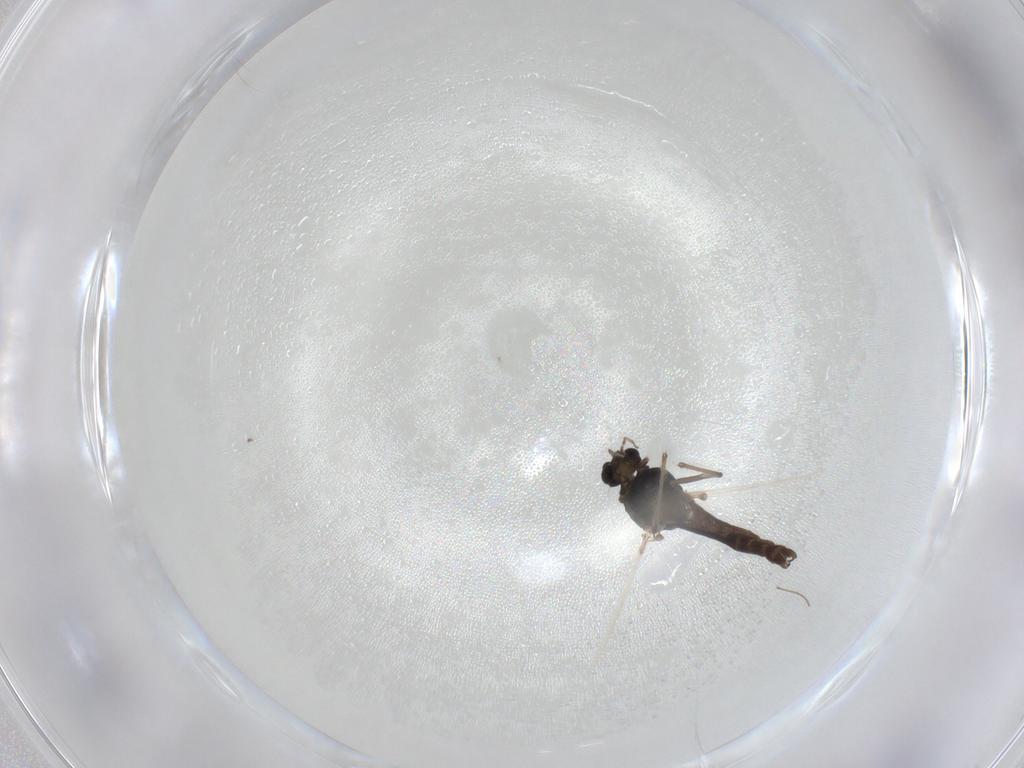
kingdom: Animalia
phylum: Arthropoda
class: Insecta
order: Diptera
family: Chironomidae
